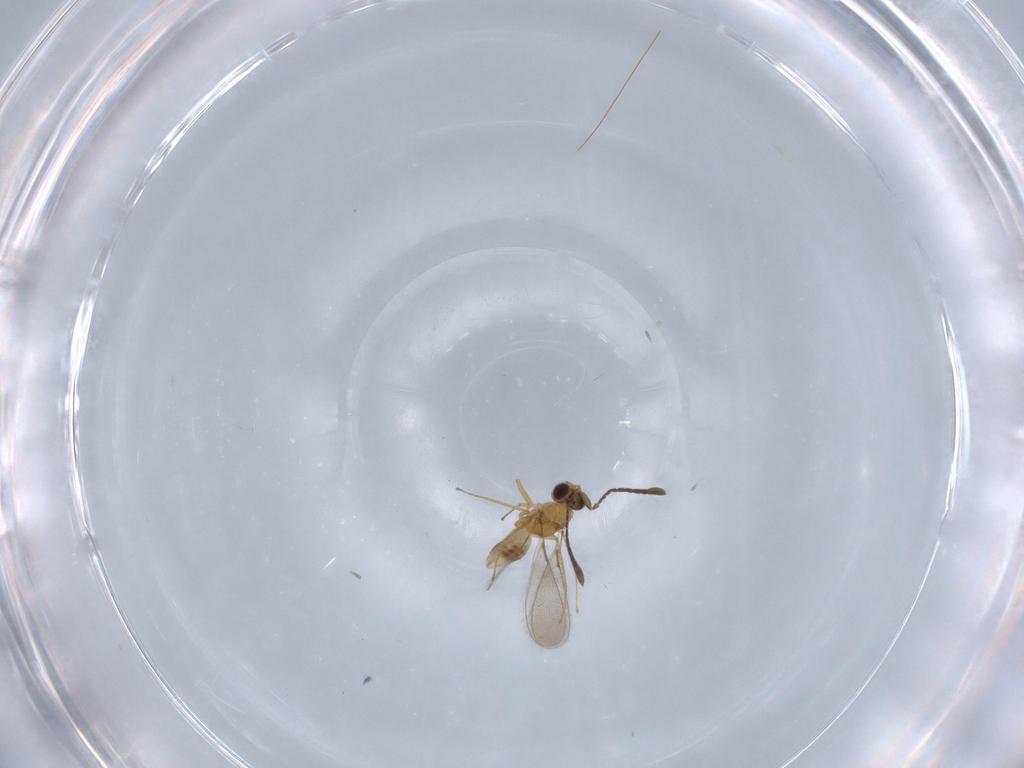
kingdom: Animalia
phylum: Arthropoda
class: Insecta
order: Hymenoptera
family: Mymaridae
